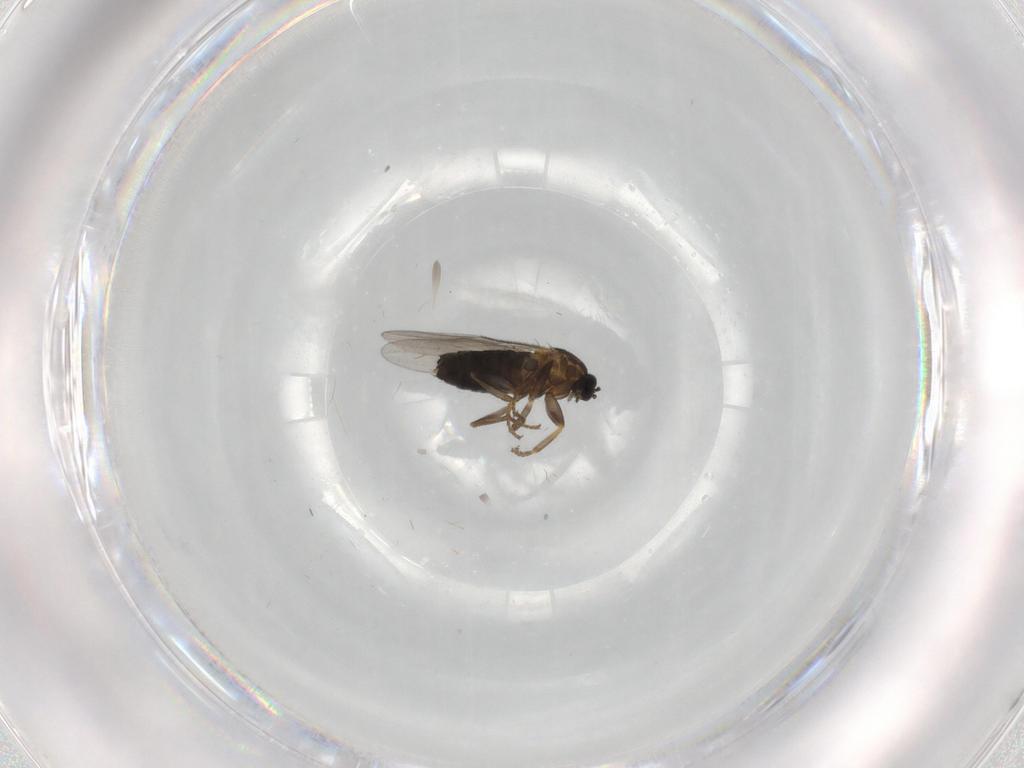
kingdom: Animalia
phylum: Arthropoda
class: Insecta
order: Diptera
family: Scatopsidae
